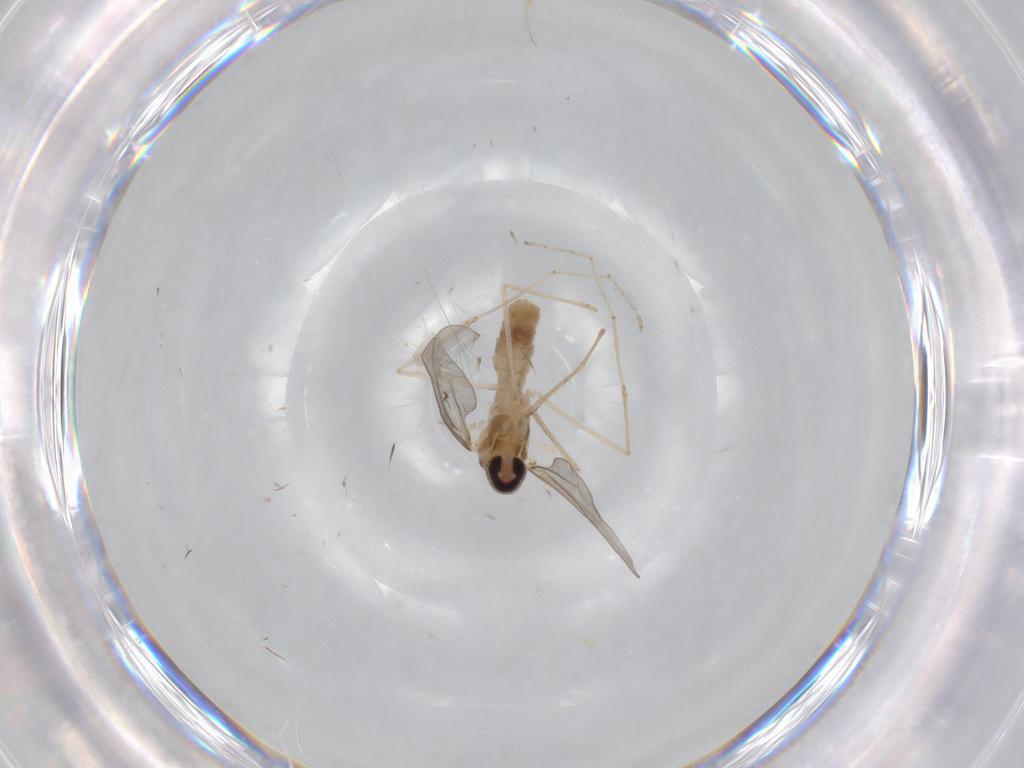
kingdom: Animalia
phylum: Arthropoda
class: Insecta
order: Diptera
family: Cecidomyiidae
